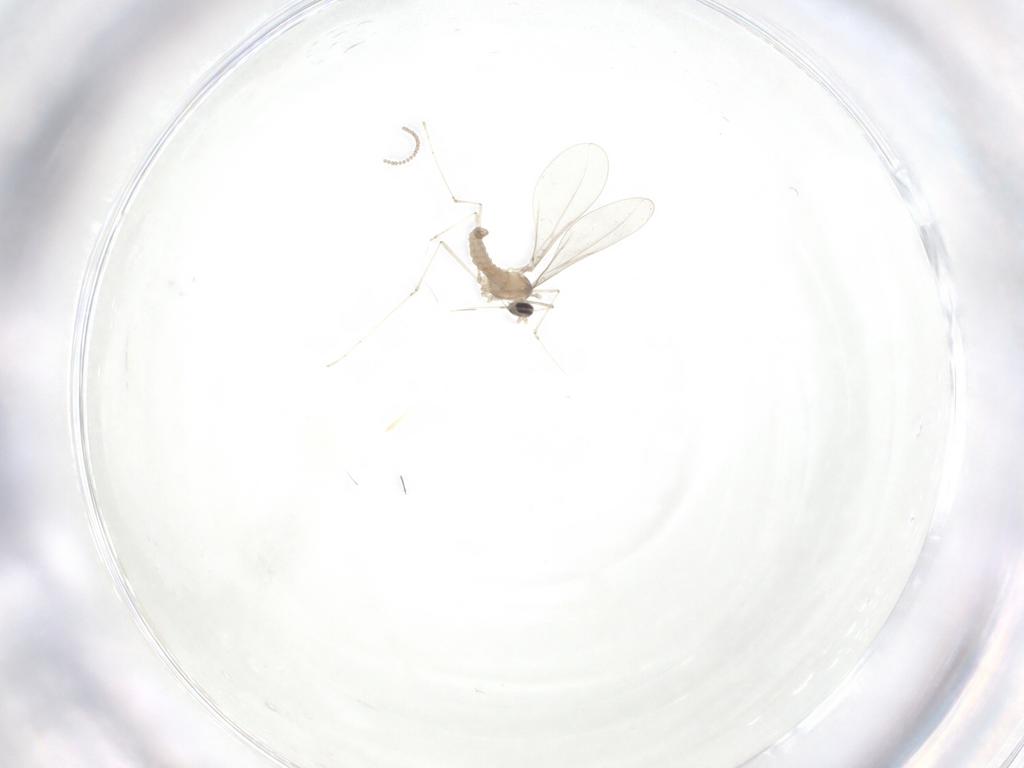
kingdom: Animalia
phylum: Arthropoda
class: Insecta
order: Diptera
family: Cecidomyiidae
